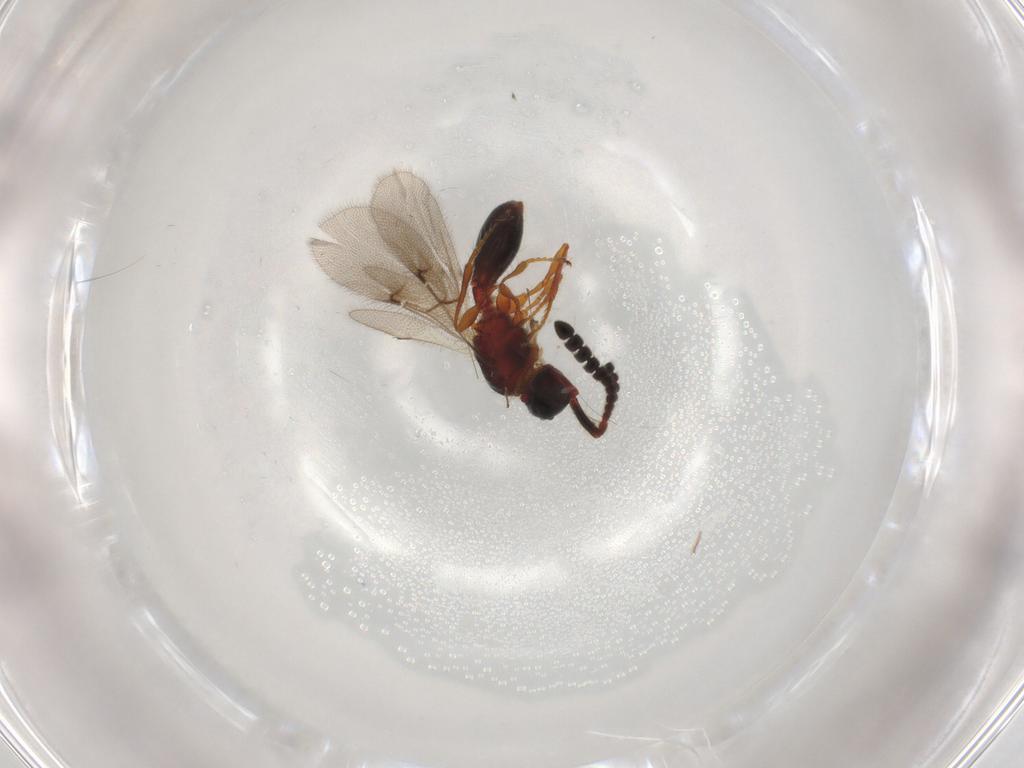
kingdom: Animalia
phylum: Arthropoda
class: Insecta
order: Hymenoptera
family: Diapriidae
